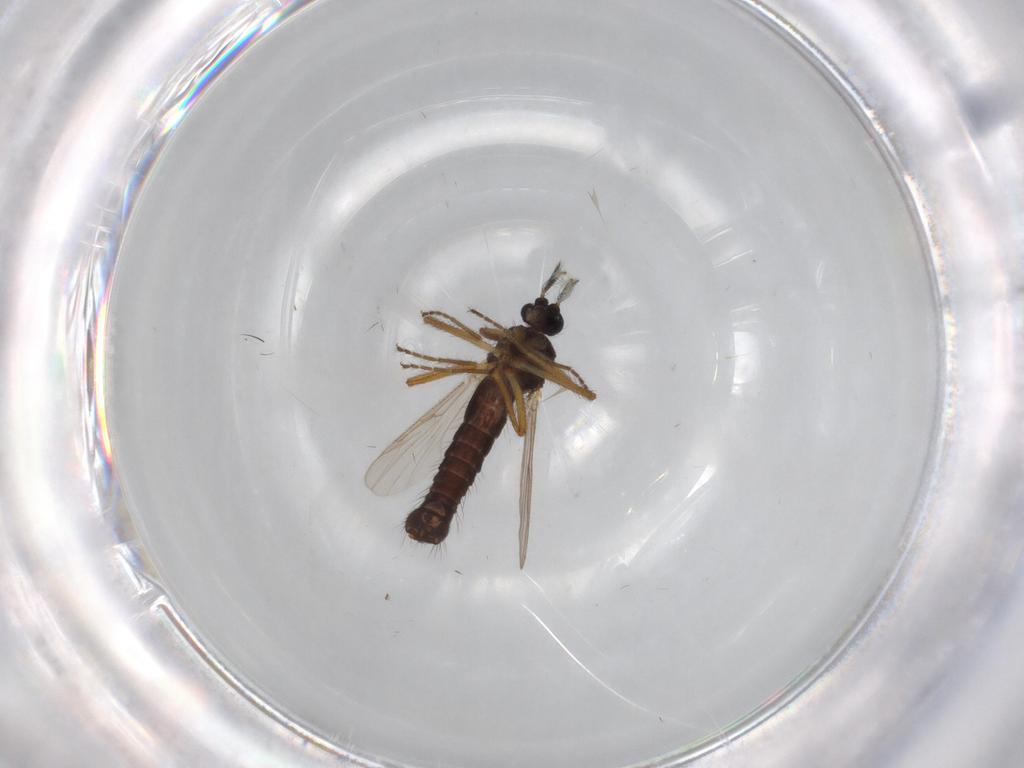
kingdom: Animalia
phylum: Arthropoda
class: Insecta
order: Diptera
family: Ceratopogonidae
